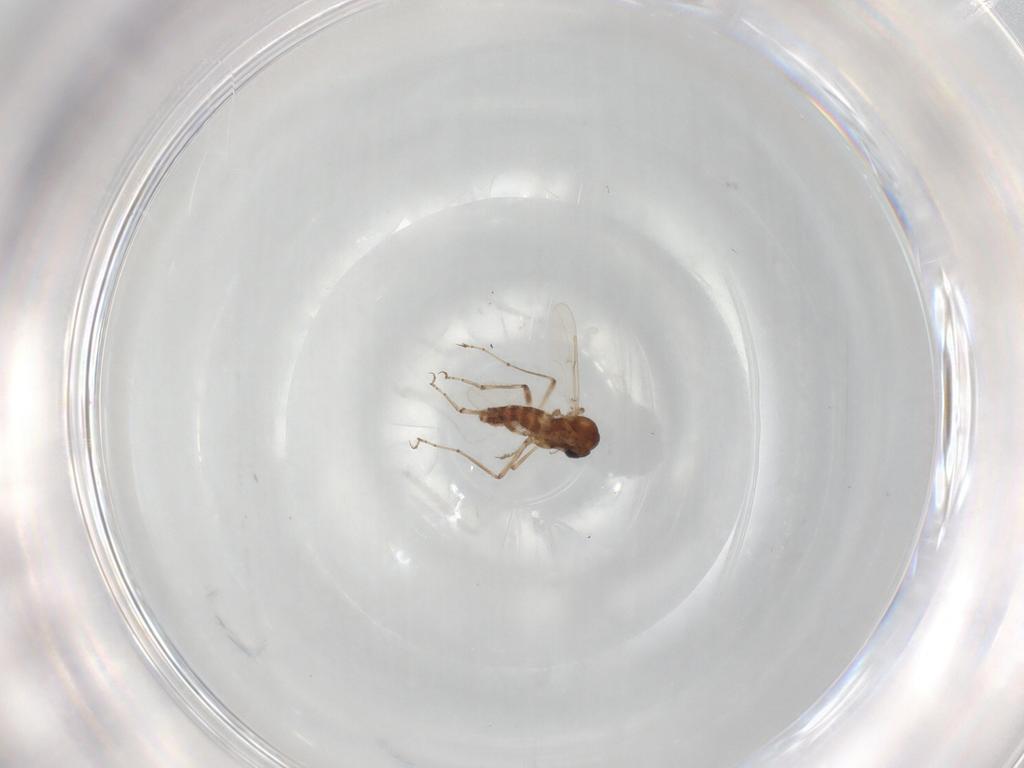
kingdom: Animalia
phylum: Arthropoda
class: Insecta
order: Diptera
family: Ceratopogonidae
